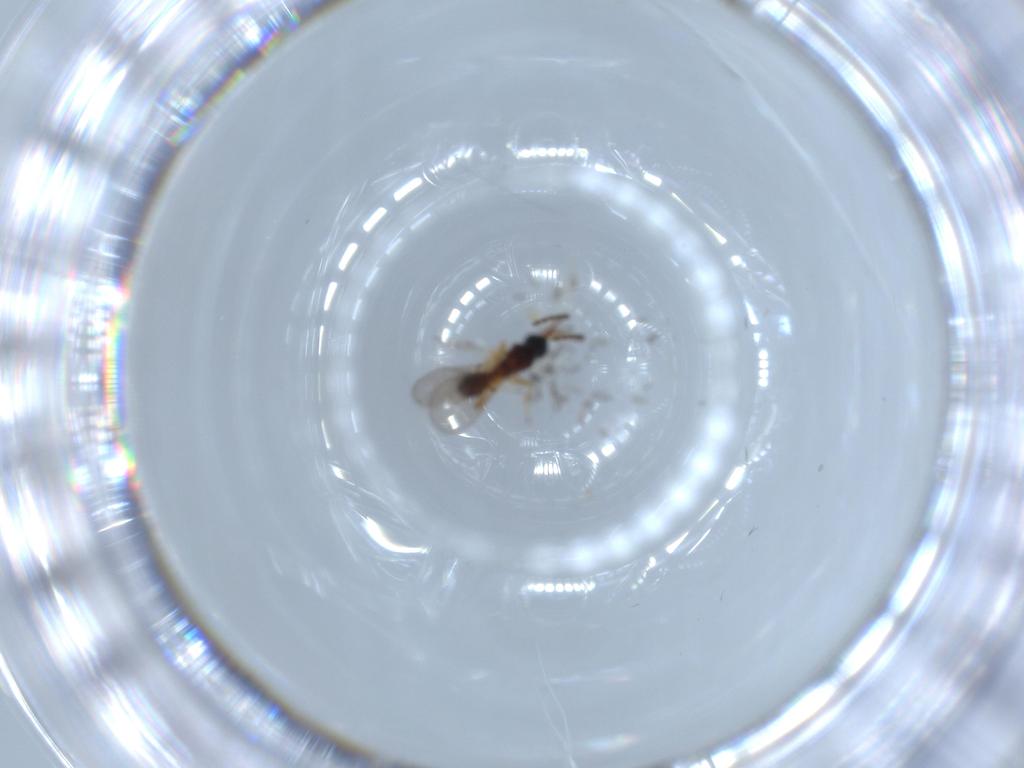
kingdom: Animalia
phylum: Arthropoda
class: Insecta
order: Hymenoptera
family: Diapriidae
